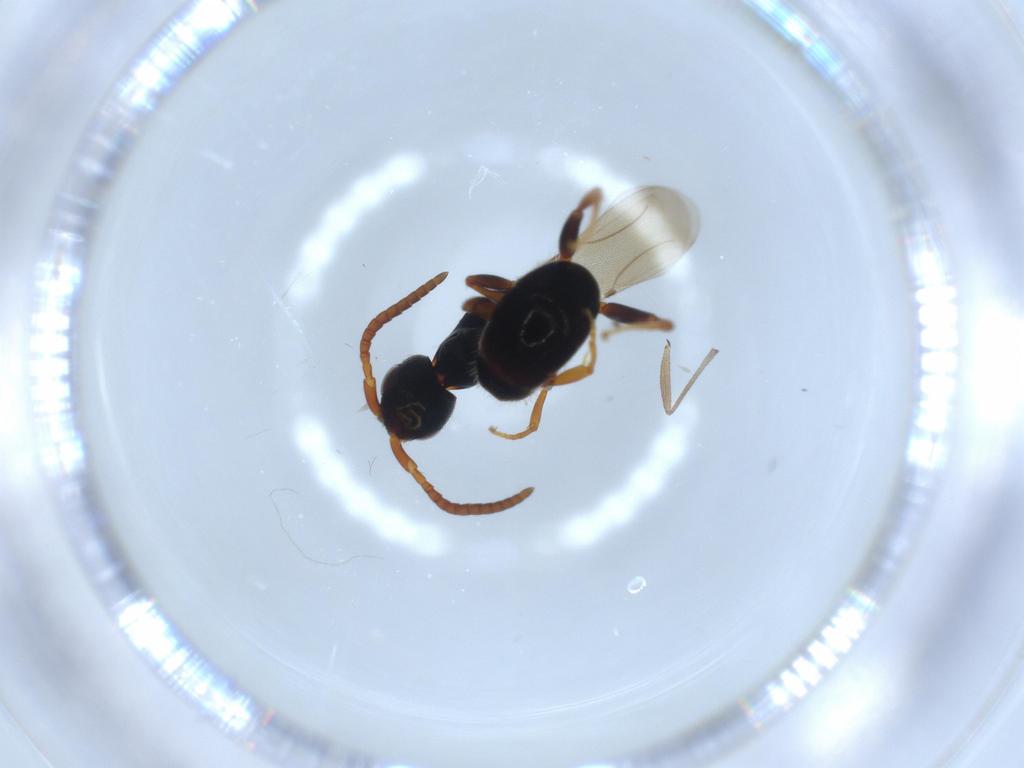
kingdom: Animalia
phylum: Arthropoda
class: Insecta
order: Hymenoptera
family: Bethylidae
